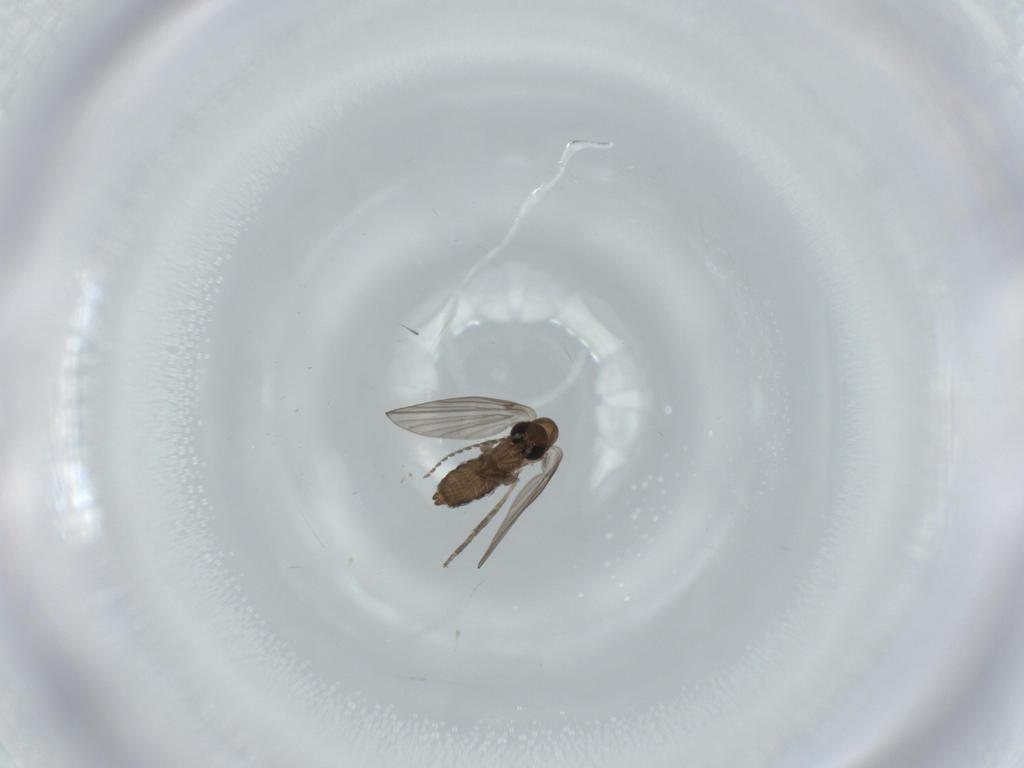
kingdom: Animalia
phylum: Arthropoda
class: Insecta
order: Diptera
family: Psychodidae
